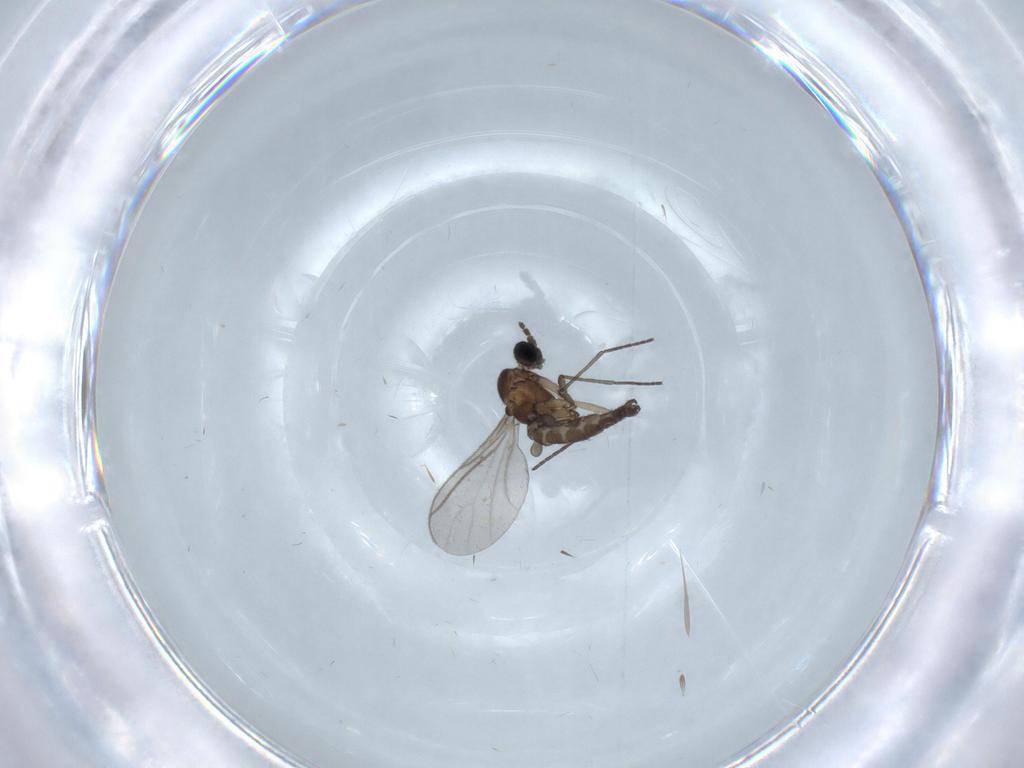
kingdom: Animalia
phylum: Arthropoda
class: Insecta
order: Diptera
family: Sciaridae
